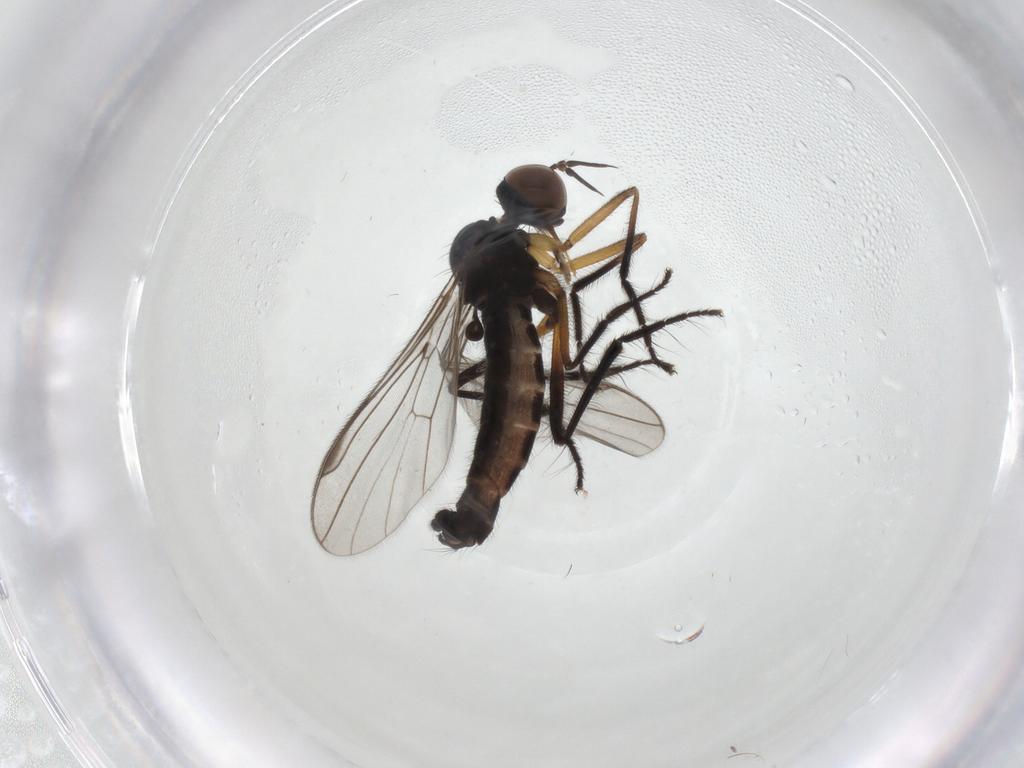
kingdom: Animalia
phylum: Arthropoda
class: Insecta
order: Diptera
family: Empididae
